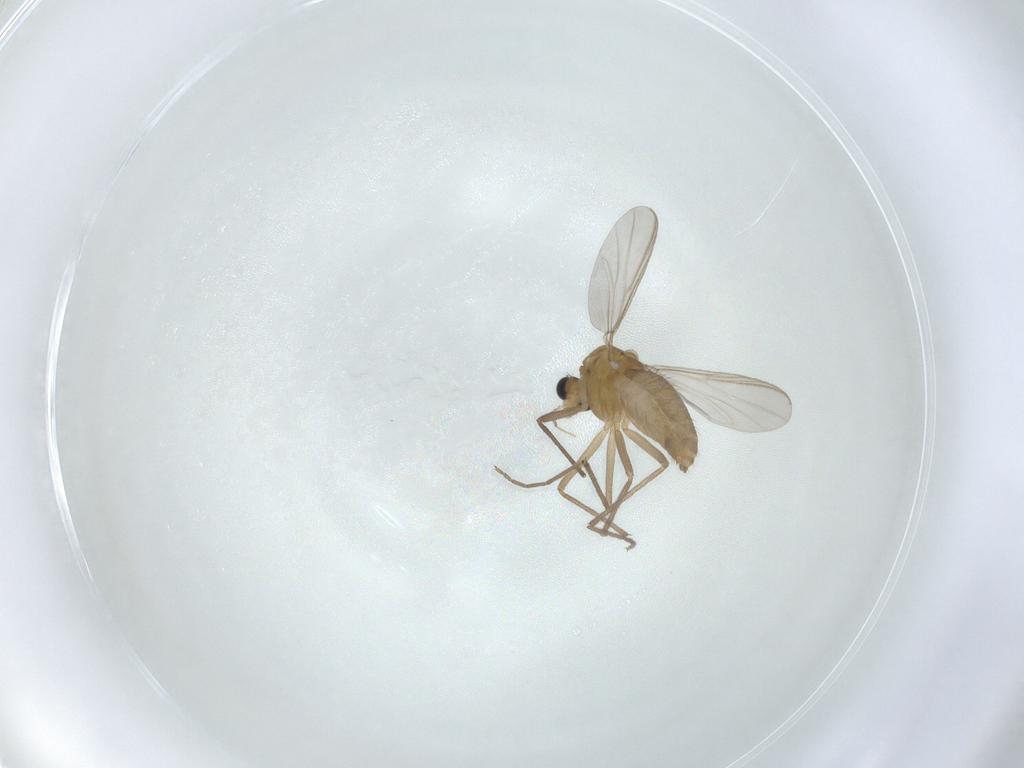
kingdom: Animalia
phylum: Arthropoda
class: Insecta
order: Diptera
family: Chironomidae
